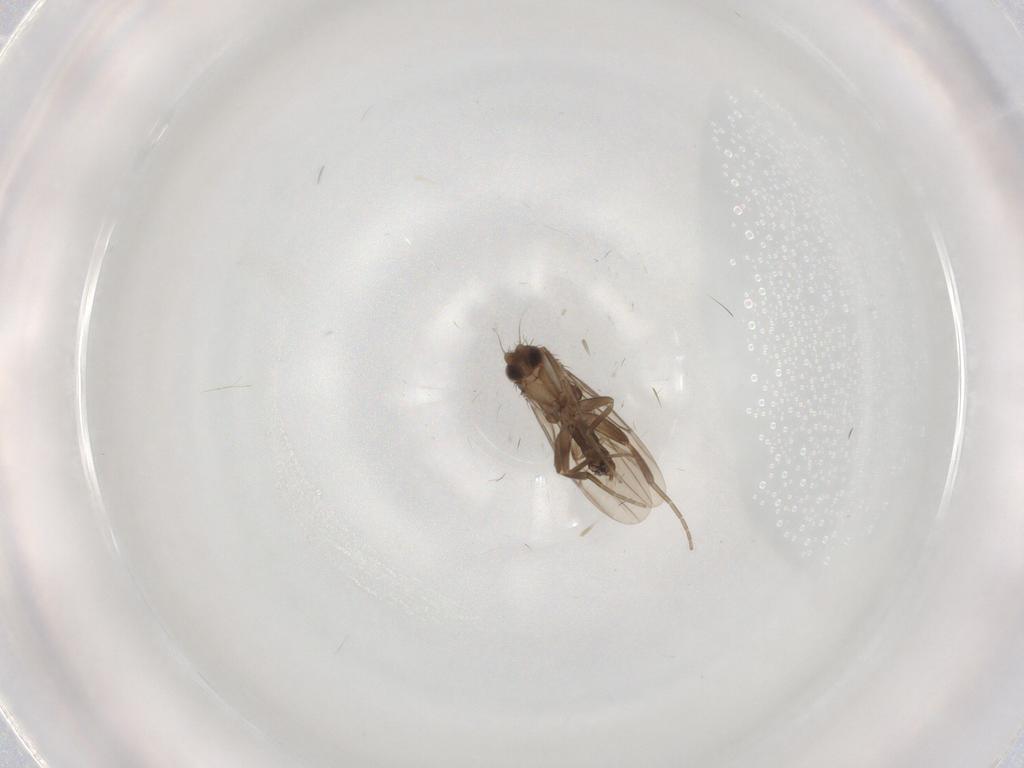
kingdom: Animalia
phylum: Arthropoda
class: Insecta
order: Diptera
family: Phoridae
